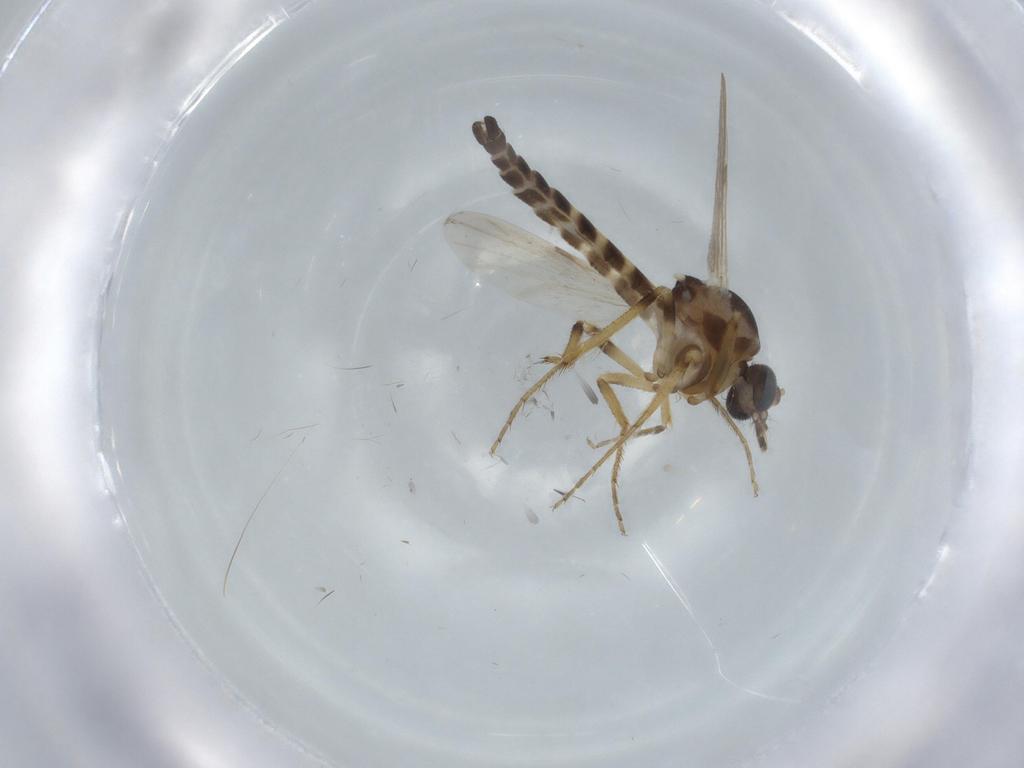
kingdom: Animalia
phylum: Arthropoda
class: Insecta
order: Diptera
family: Ceratopogonidae
